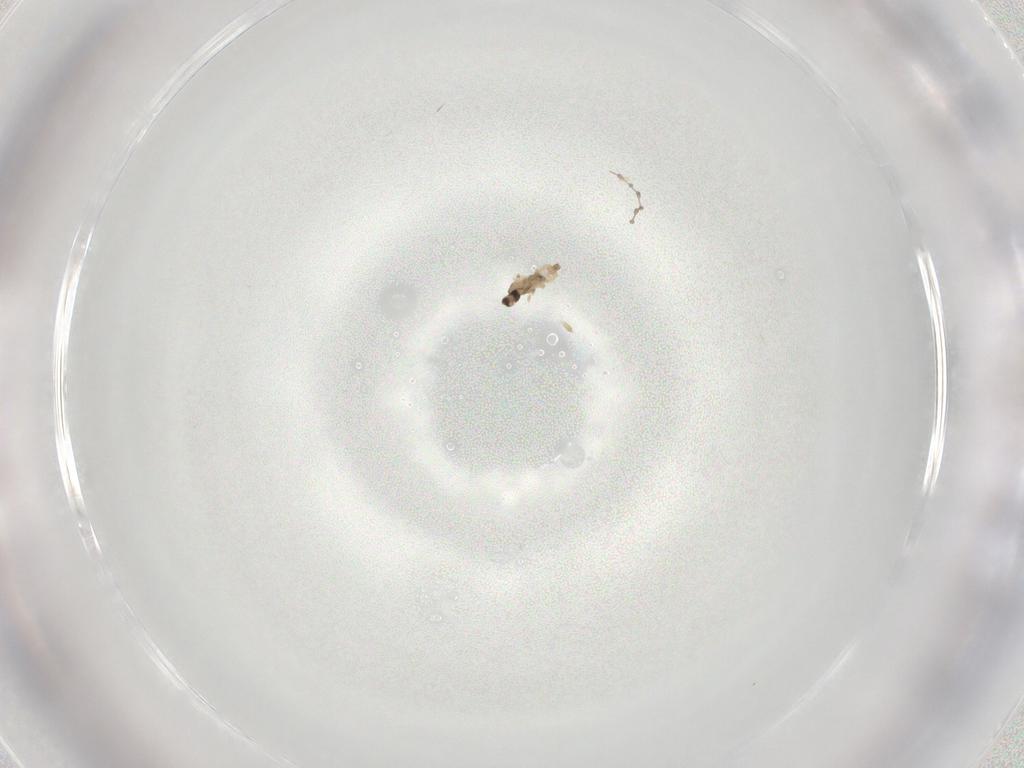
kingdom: Animalia
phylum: Arthropoda
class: Insecta
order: Diptera
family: Cecidomyiidae
